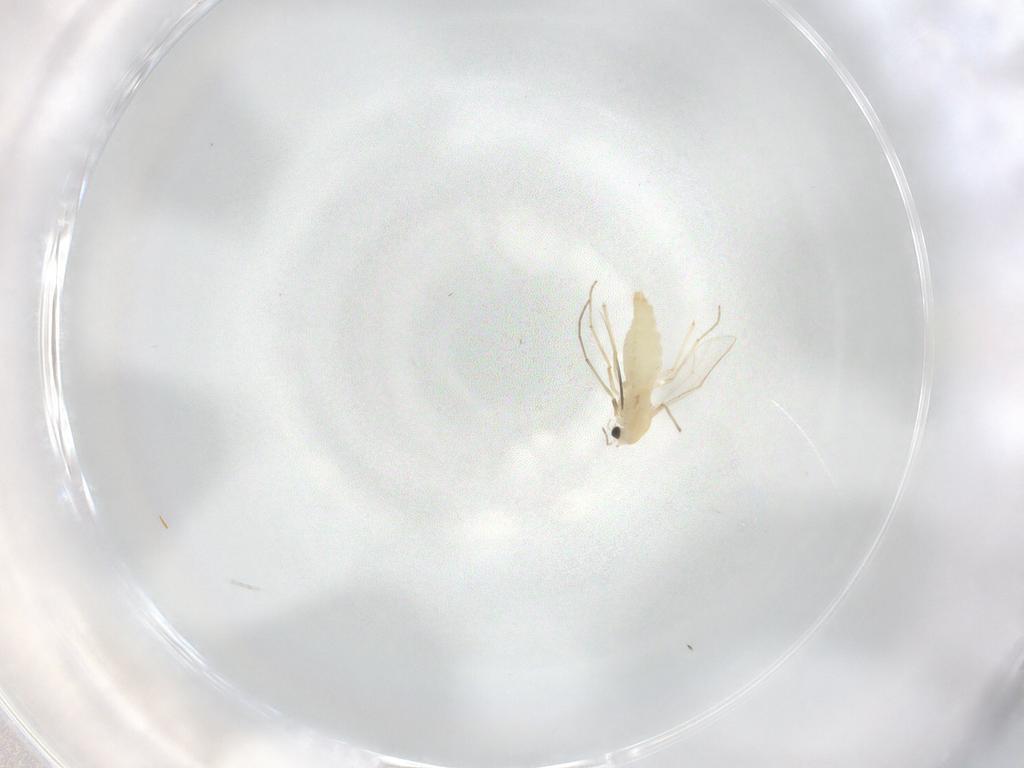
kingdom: Animalia
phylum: Arthropoda
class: Insecta
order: Diptera
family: Chironomidae
